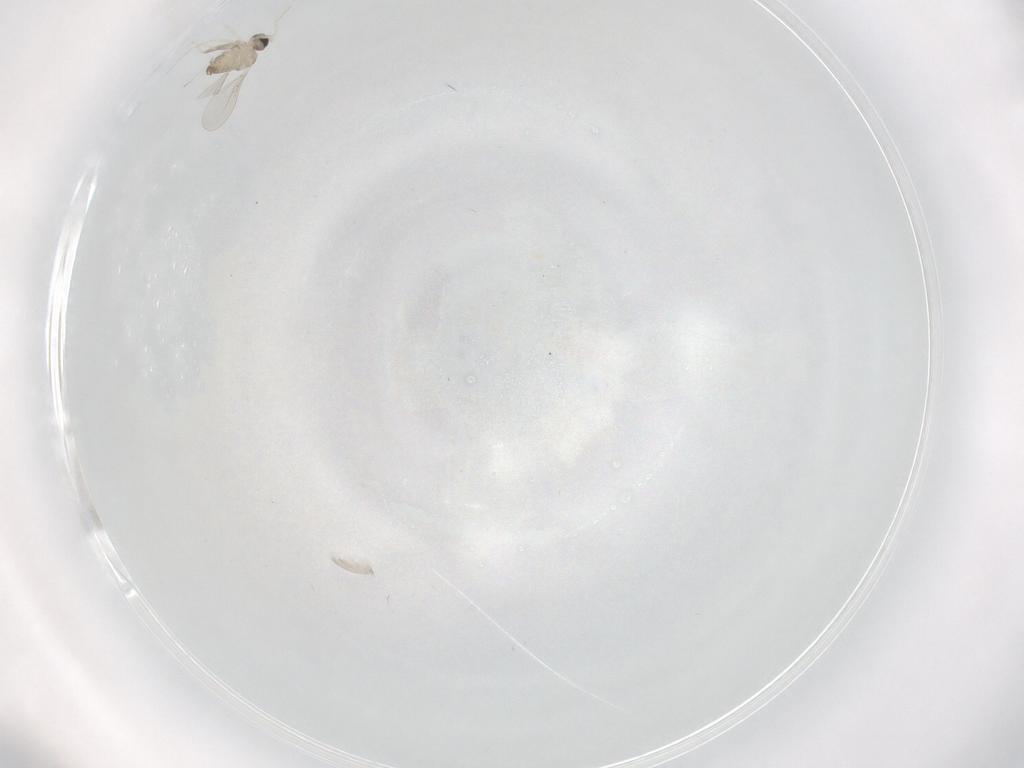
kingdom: Animalia
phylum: Arthropoda
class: Insecta
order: Diptera
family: Cecidomyiidae
